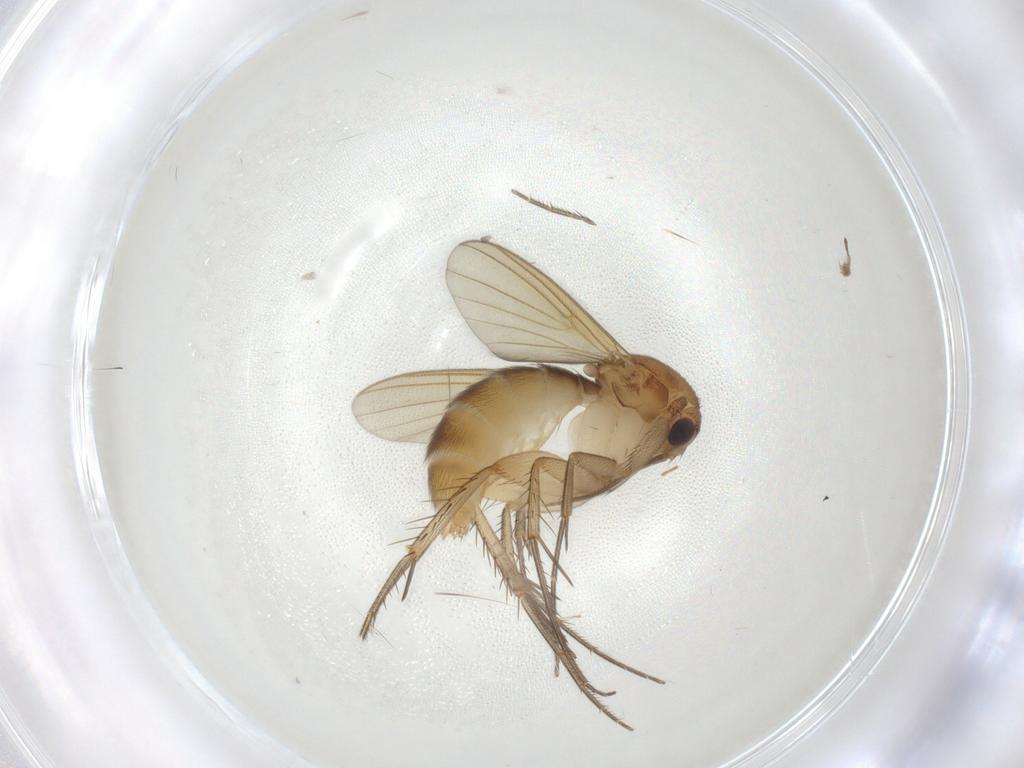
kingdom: Animalia
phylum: Arthropoda
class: Insecta
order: Diptera
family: Mycetophilidae
